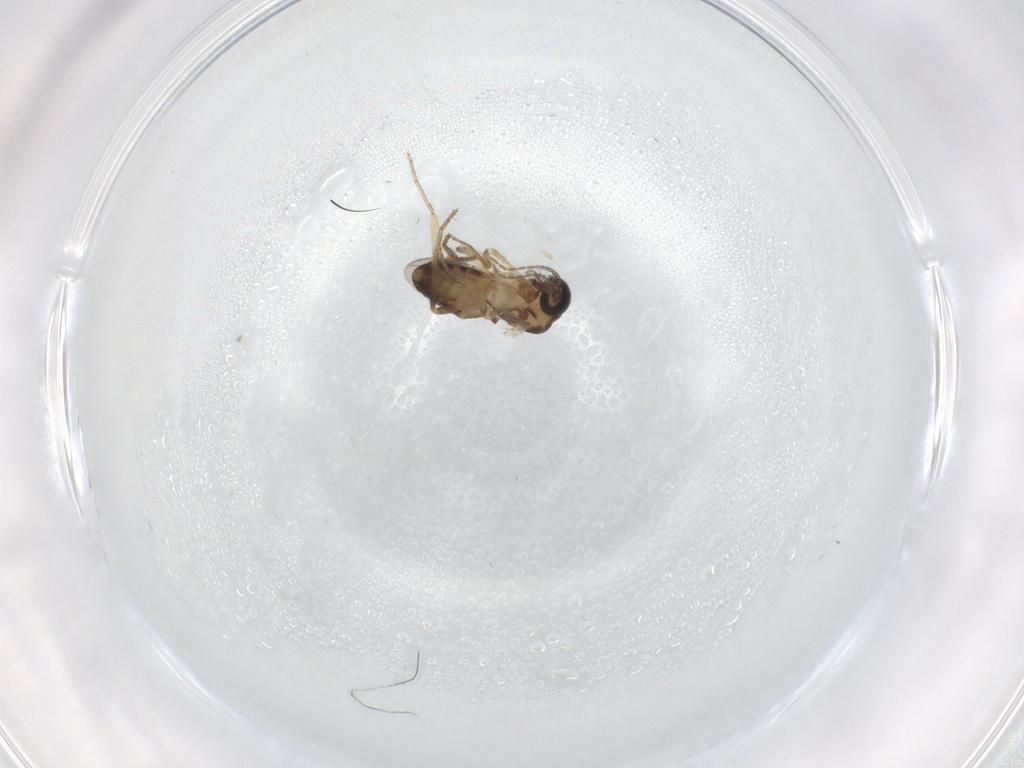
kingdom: Animalia
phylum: Arthropoda
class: Insecta
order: Diptera
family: Ceratopogonidae
